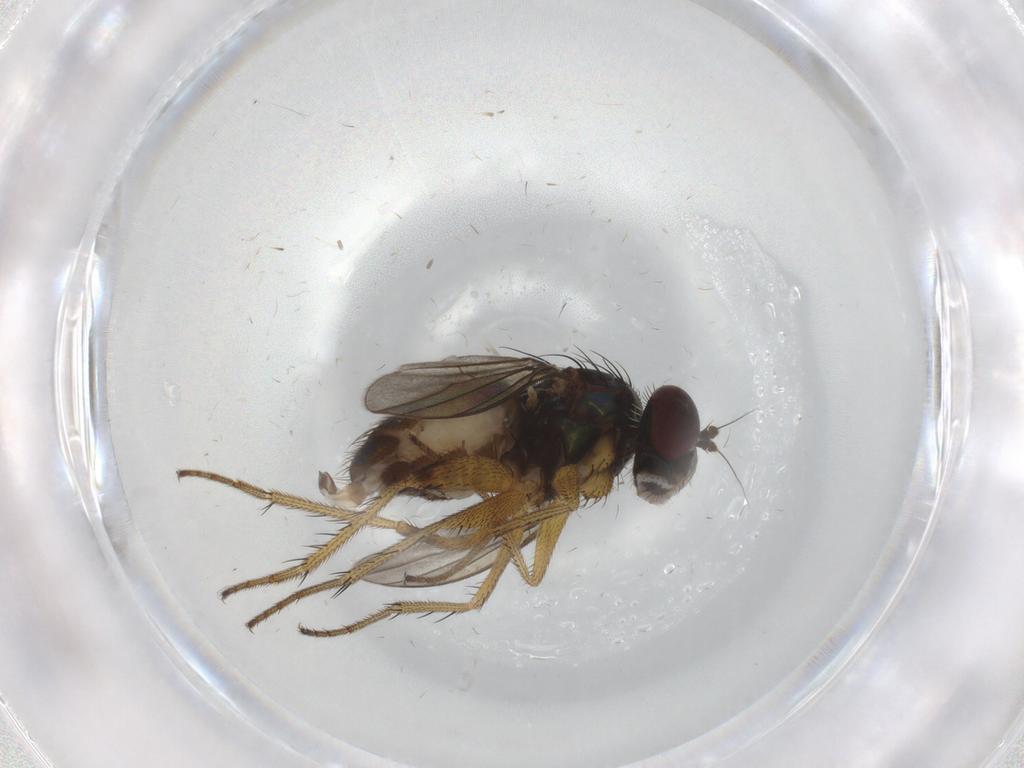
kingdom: Animalia
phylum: Arthropoda
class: Insecta
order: Diptera
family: Dolichopodidae
